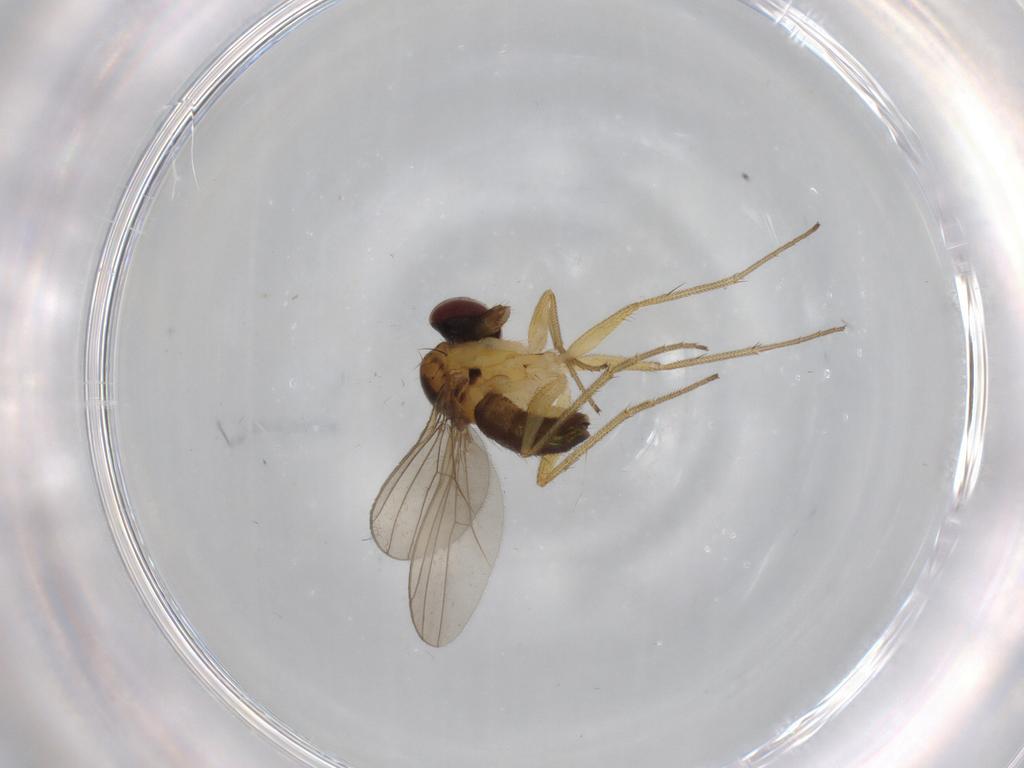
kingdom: Animalia
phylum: Arthropoda
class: Insecta
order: Diptera
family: Dolichopodidae
